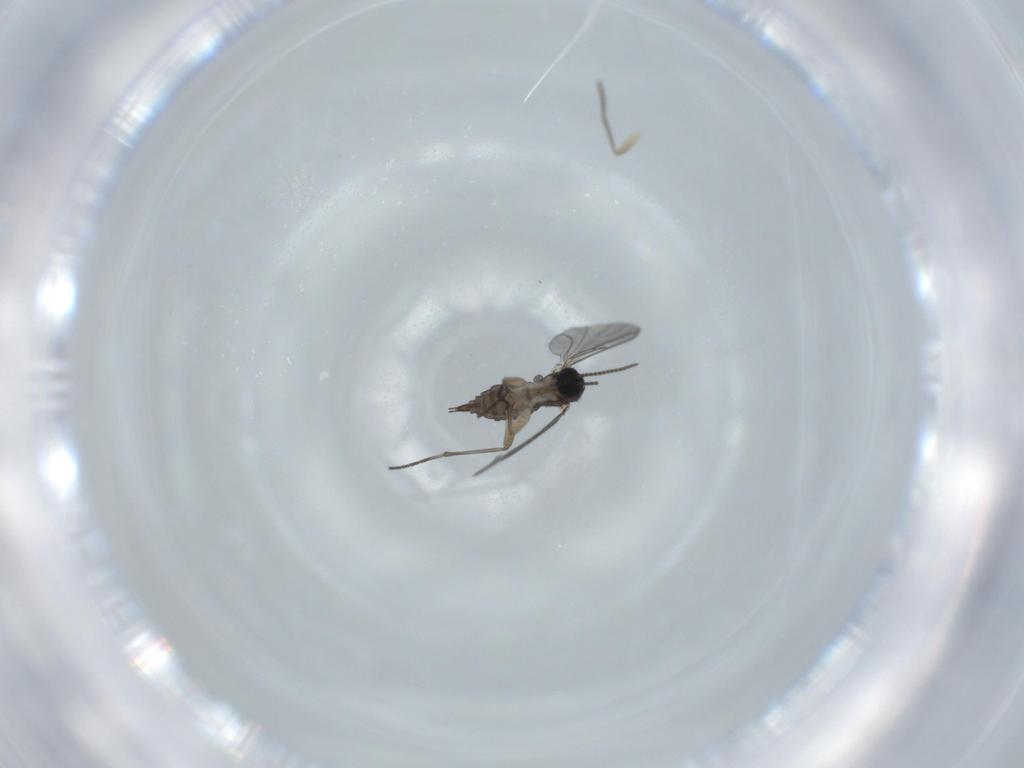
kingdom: Animalia
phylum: Arthropoda
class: Insecta
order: Diptera
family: Sciaridae
